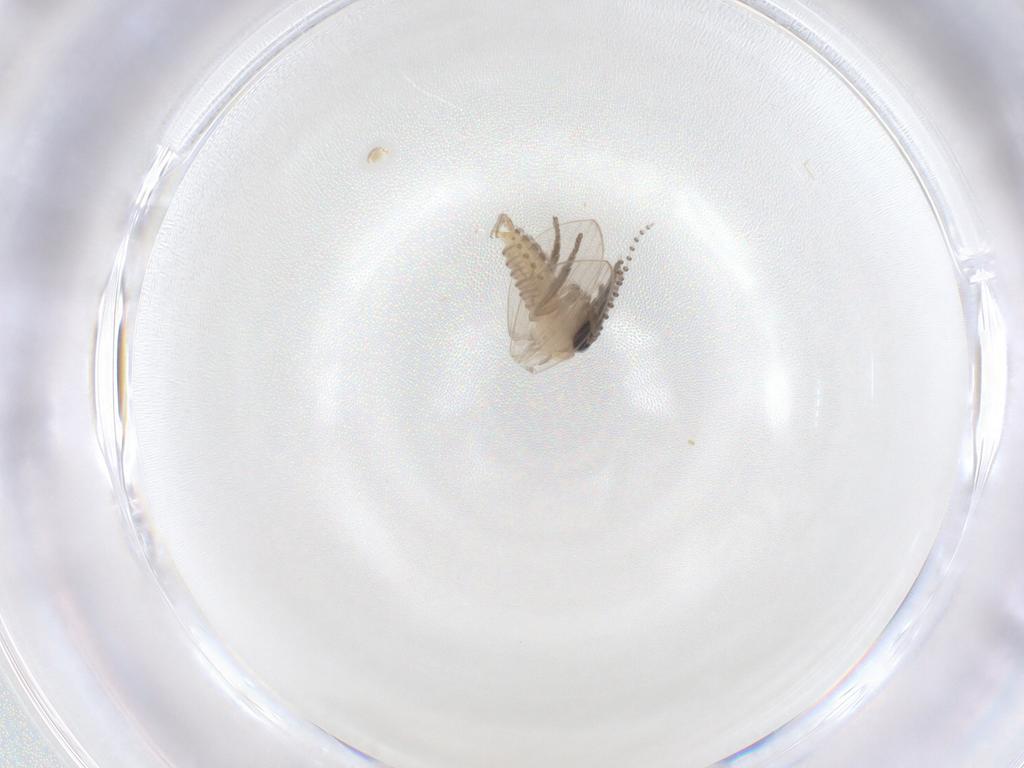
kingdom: Animalia
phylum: Arthropoda
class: Insecta
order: Diptera
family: Psychodidae
